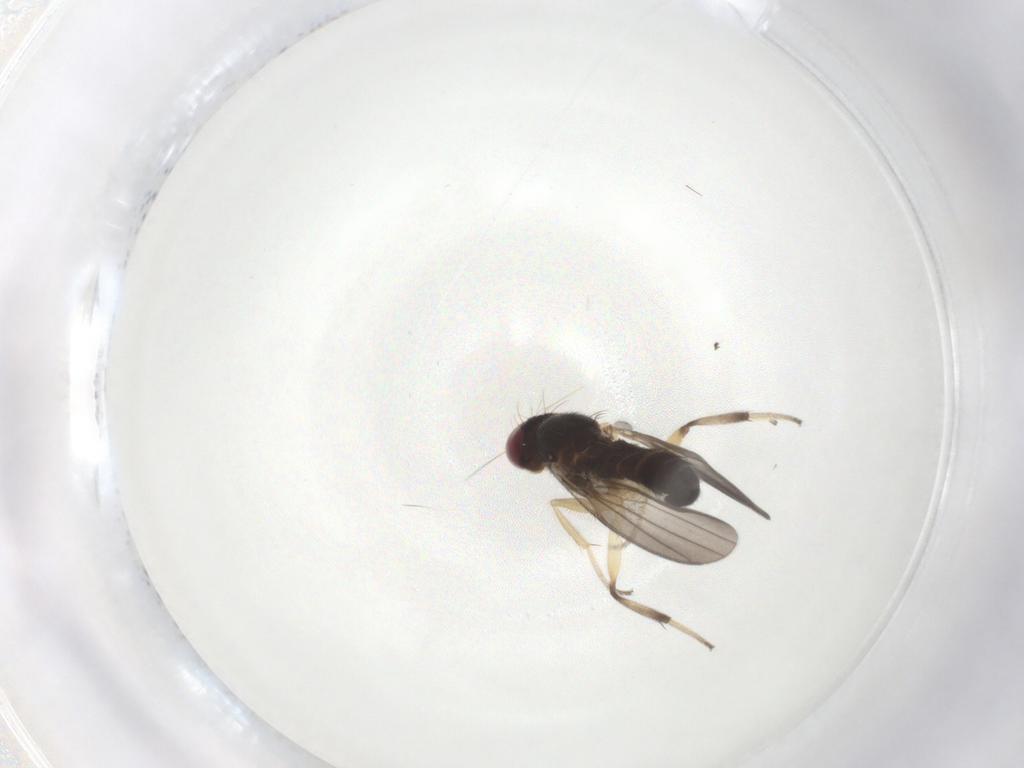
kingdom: Animalia
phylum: Arthropoda
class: Insecta
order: Diptera
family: Clusiidae
